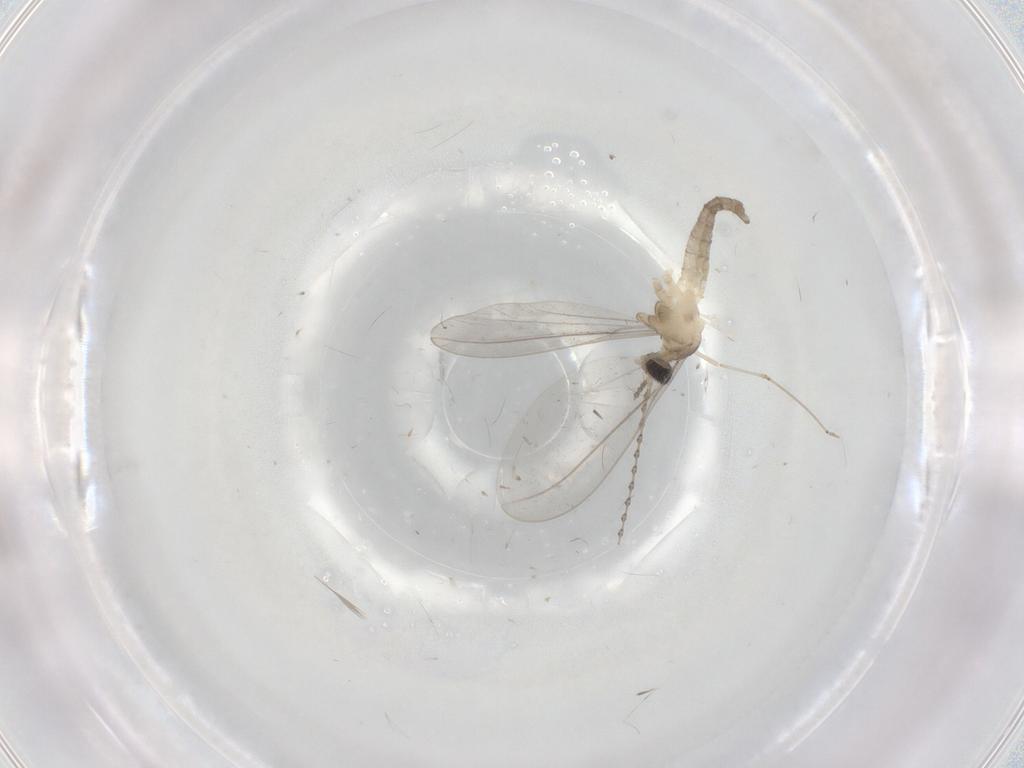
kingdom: Animalia
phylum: Arthropoda
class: Insecta
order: Diptera
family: Cecidomyiidae
